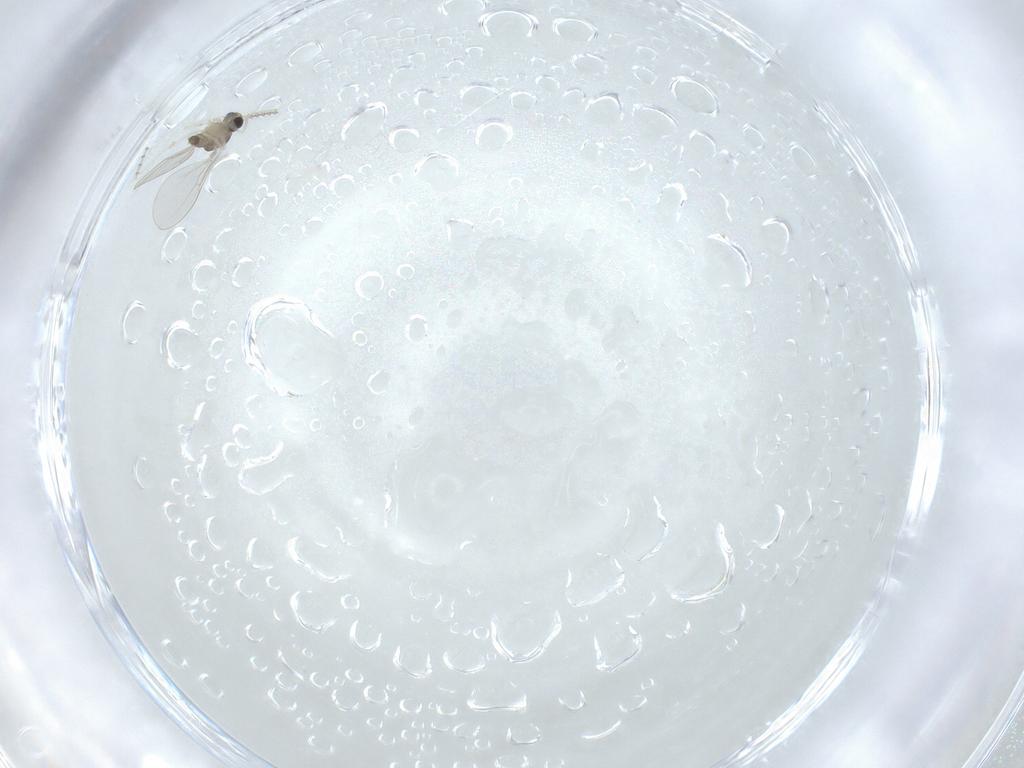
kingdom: Animalia
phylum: Arthropoda
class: Insecta
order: Diptera
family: Cecidomyiidae
